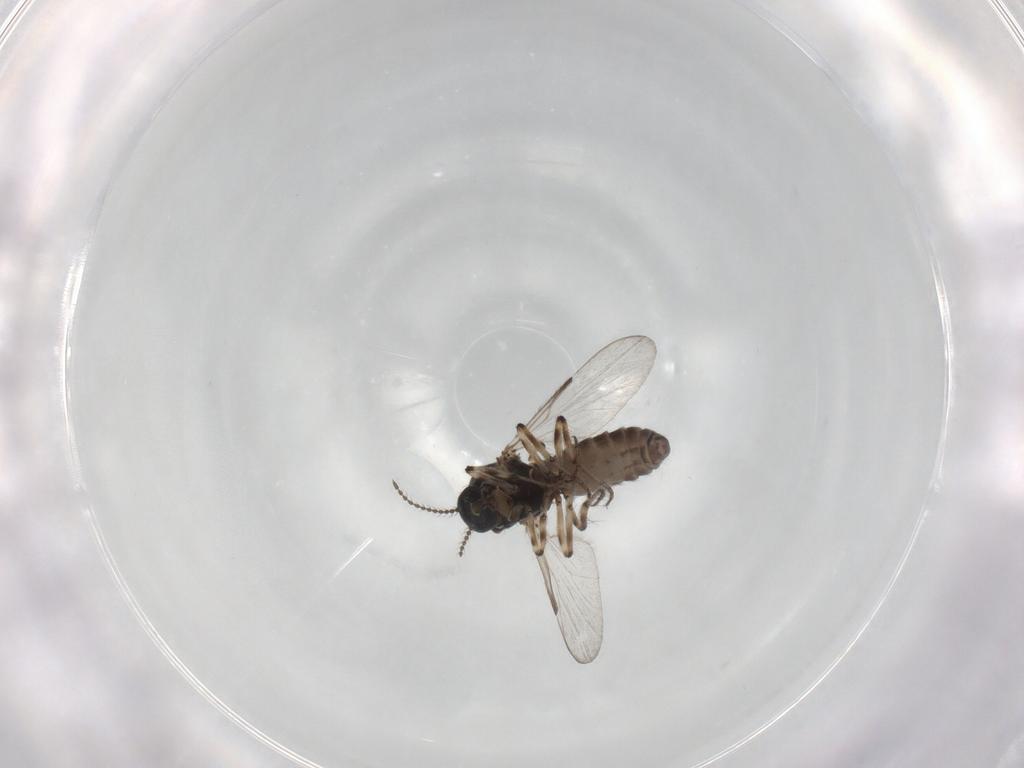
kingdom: Animalia
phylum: Arthropoda
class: Insecta
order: Diptera
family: Ceratopogonidae
